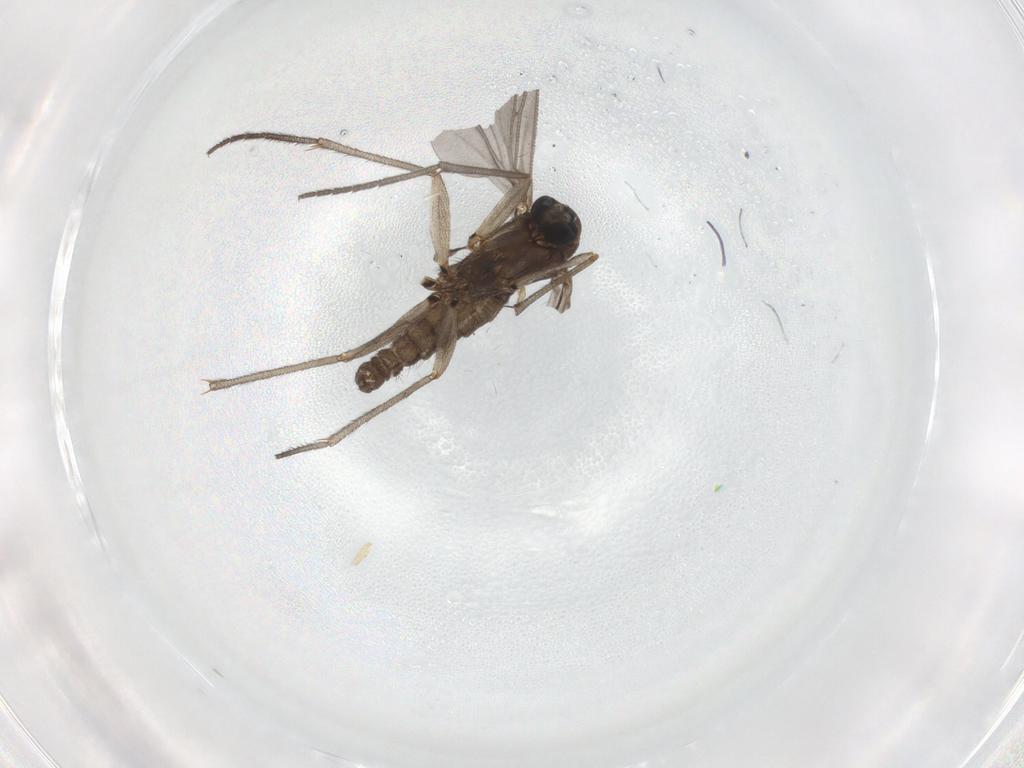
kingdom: Animalia
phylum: Arthropoda
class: Insecta
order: Diptera
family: Sciaridae
